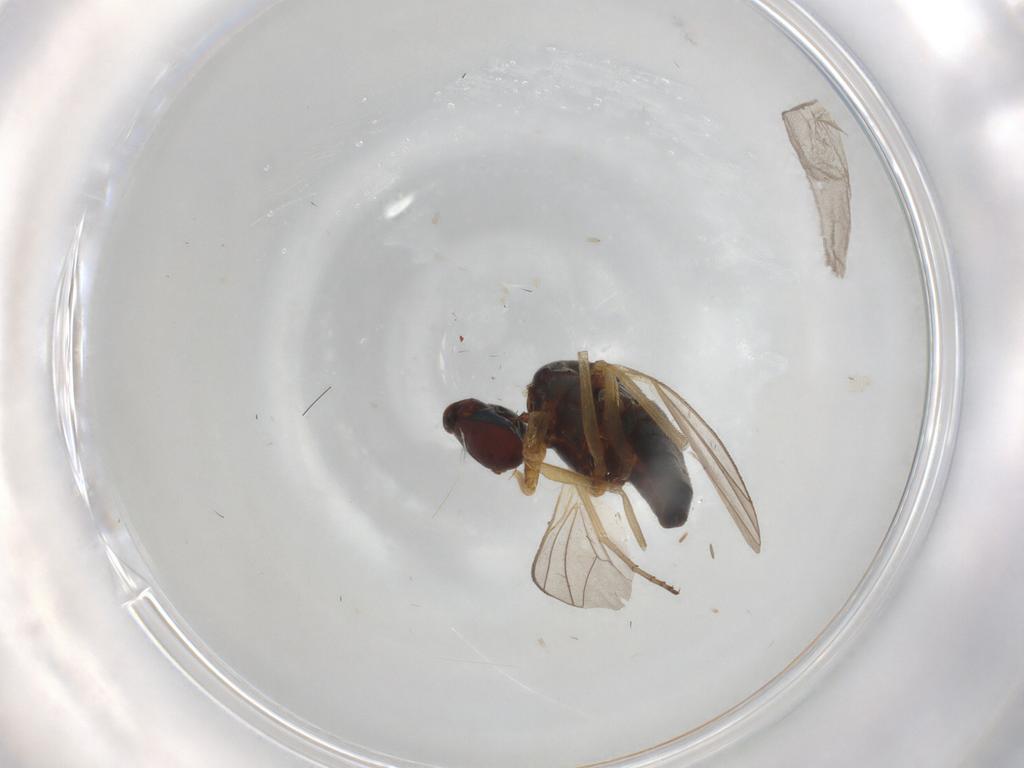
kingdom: Animalia
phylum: Arthropoda
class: Insecta
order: Diptera
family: Dolichopodidae
